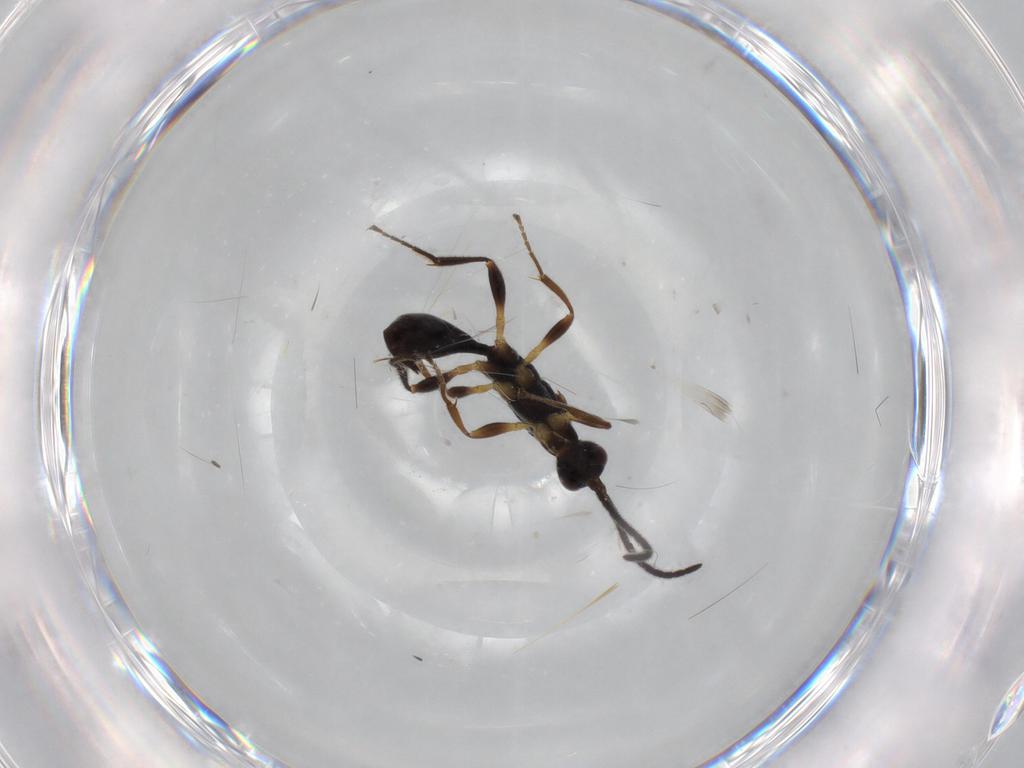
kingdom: Animalia
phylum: Arthropoda
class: Insecta
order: Hymenoptera
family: Proctotrupidae
